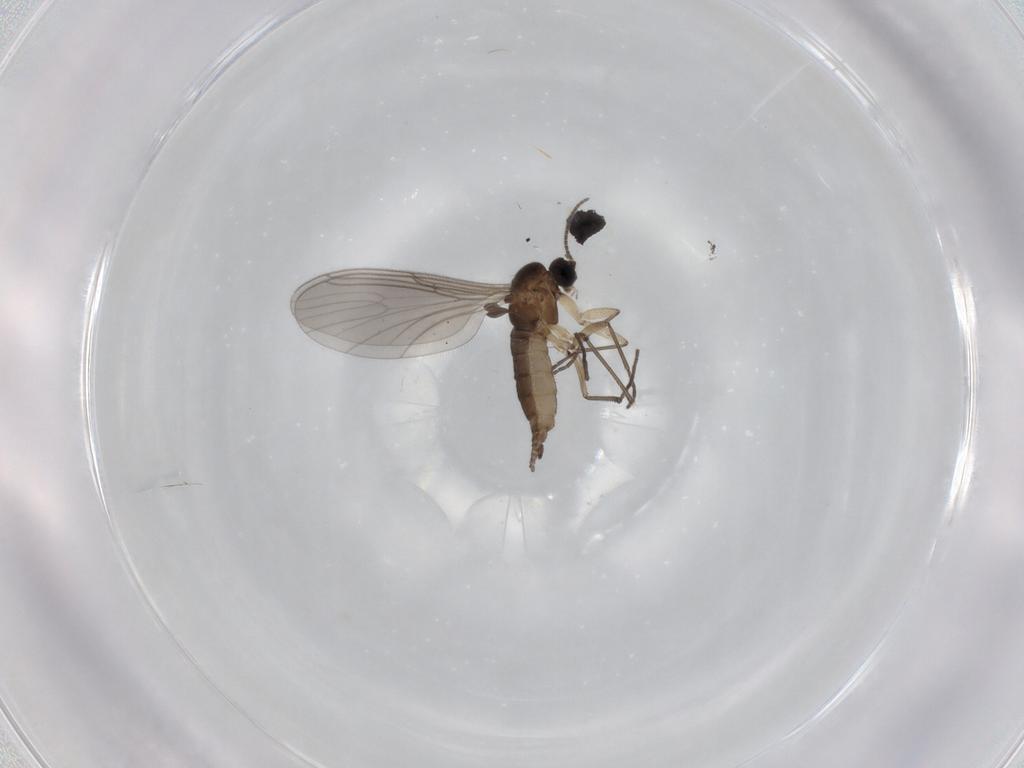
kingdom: Animalia
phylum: Arthropoda
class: Insecta
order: Diptera
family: Sciaridae
